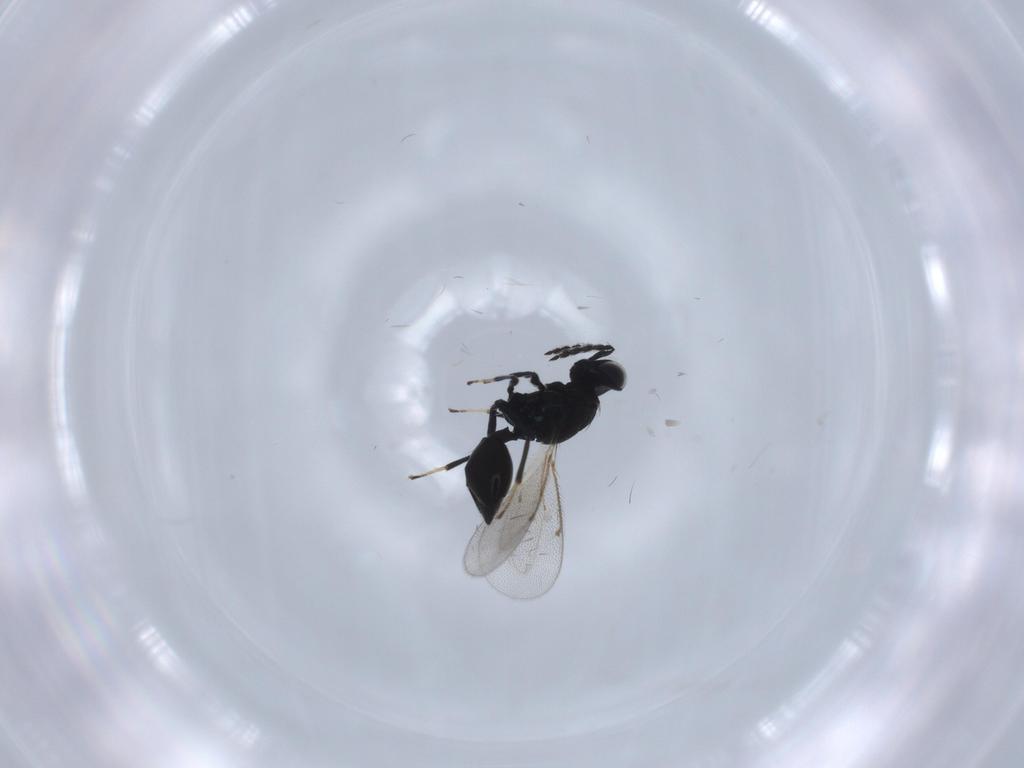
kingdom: Animalia
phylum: Arthropoda
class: Insecta
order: Hymenoptera
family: Eulophidae
